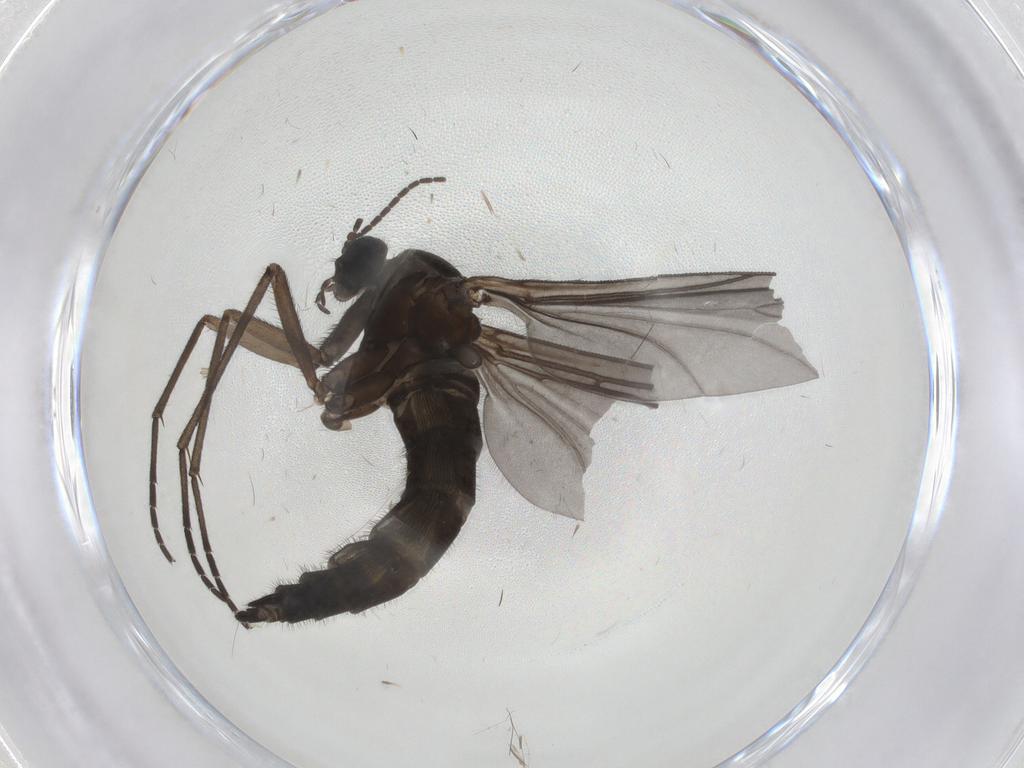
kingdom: Animalia
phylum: Arthropoda
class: Insecta
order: Diptera
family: Sciaridae
